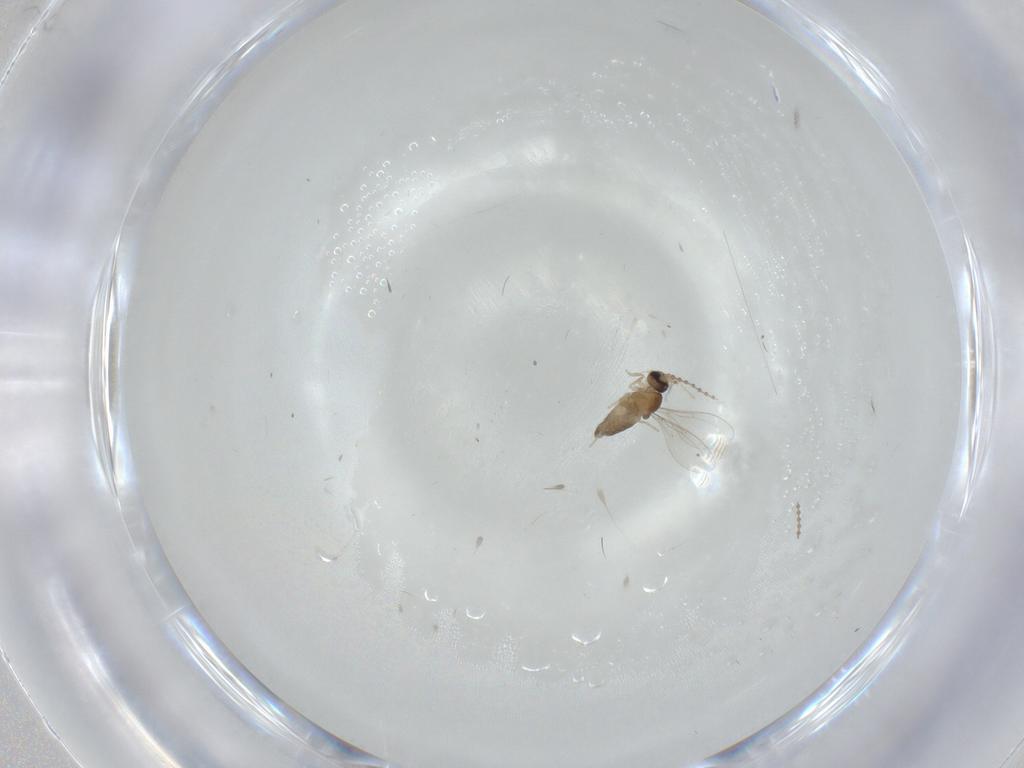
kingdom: Animalia
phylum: Arthropoda
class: Insecta
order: Diptera
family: Cecidomyiidae
